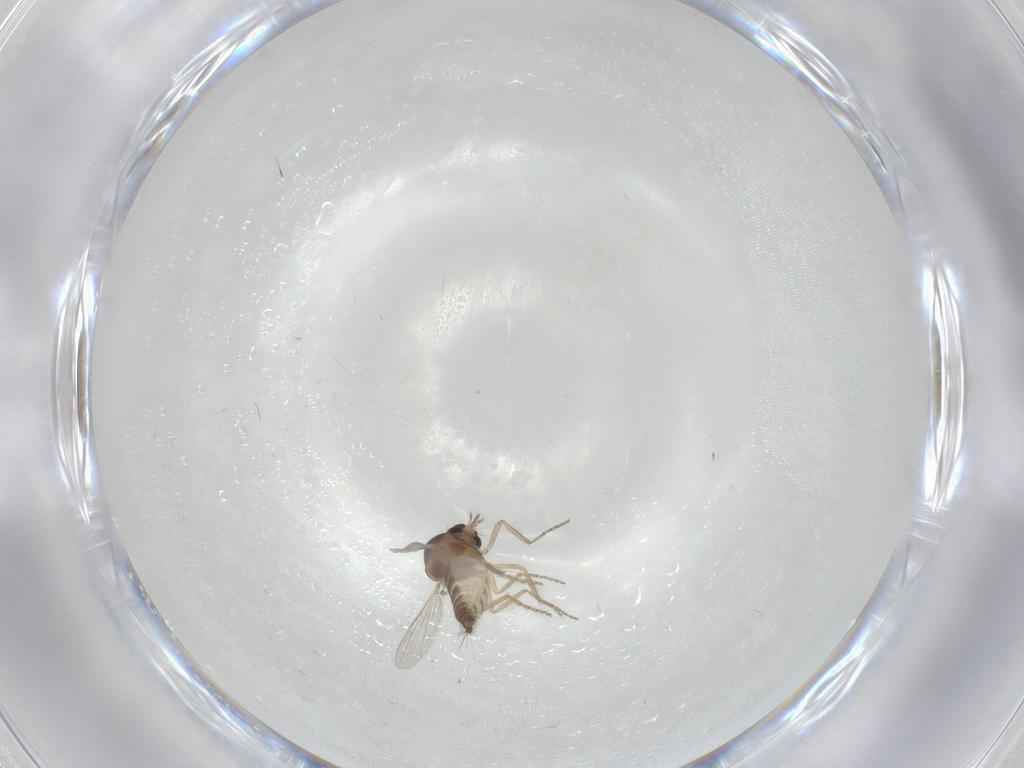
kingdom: Animalia
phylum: Arthropoda
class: Insecta
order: Diptera
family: Ceratopogonidae
